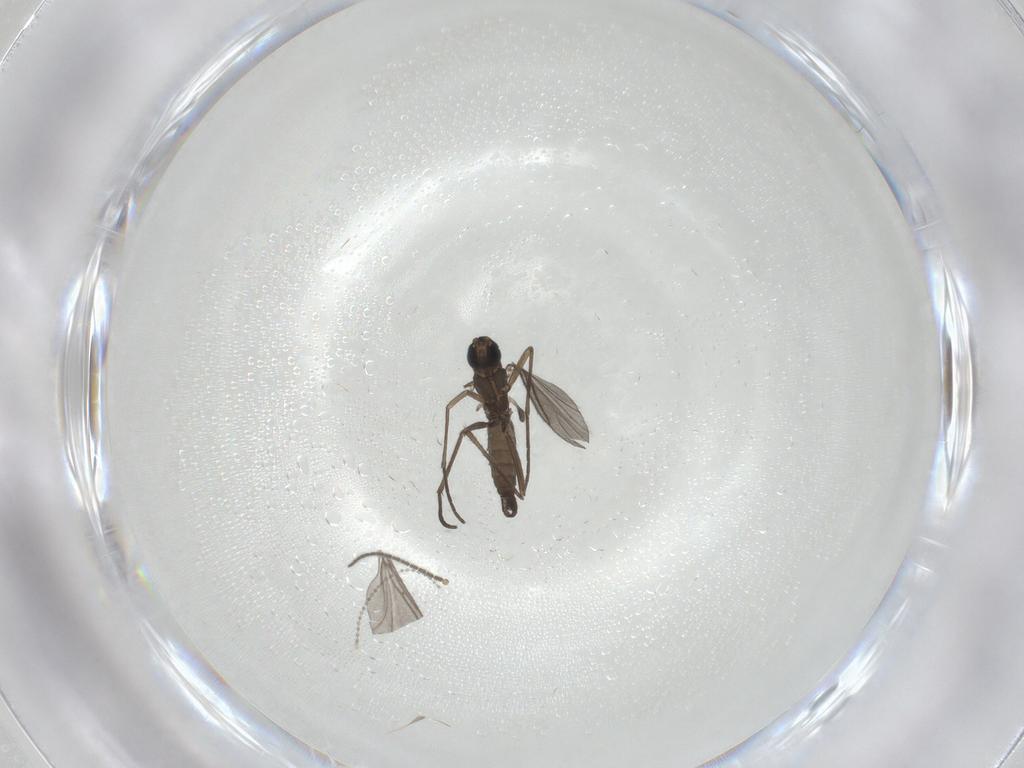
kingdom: Animalia
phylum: Arthropoda
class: Insecta
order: Diptera
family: Sciaridae
